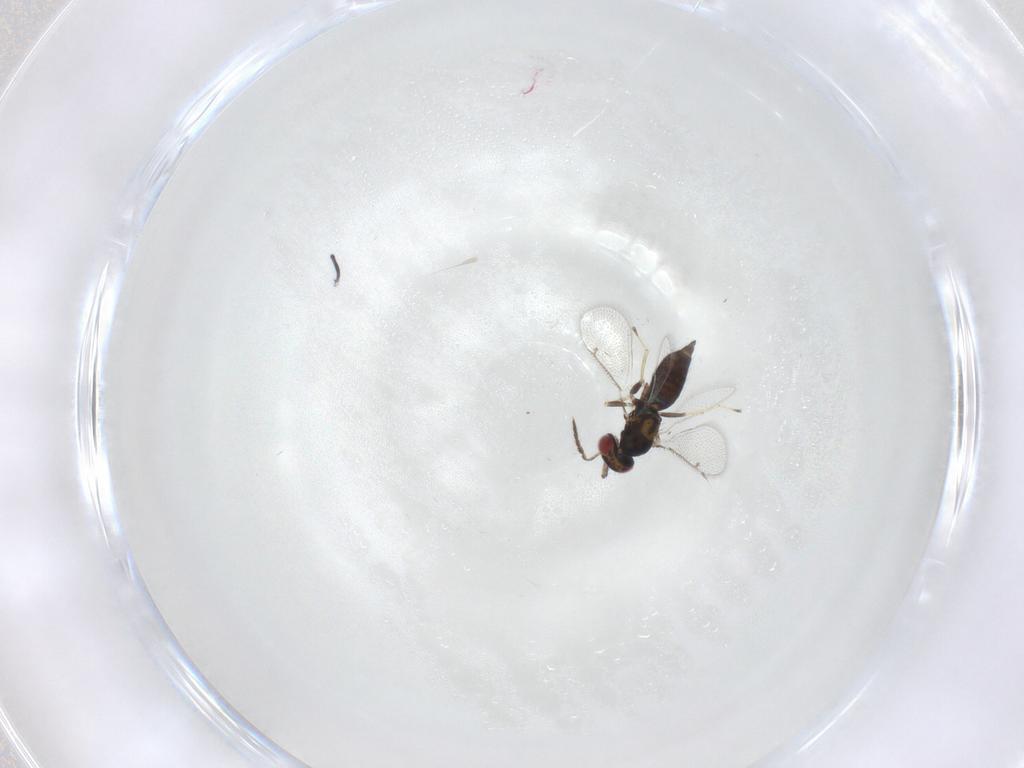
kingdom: Animalia
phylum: Arthropoda
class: Insecta
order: Hymenoptera
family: Eulophidae
